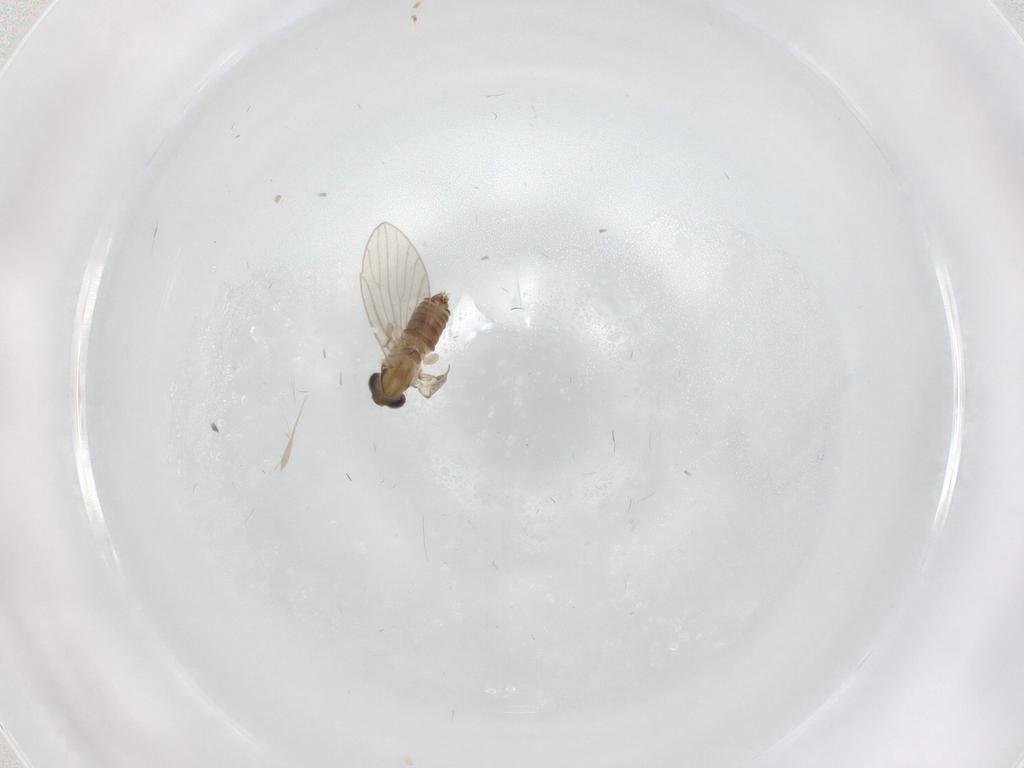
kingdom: Animalia
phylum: Arthropoda
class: Insecta
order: Diptera
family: Psychodidae
